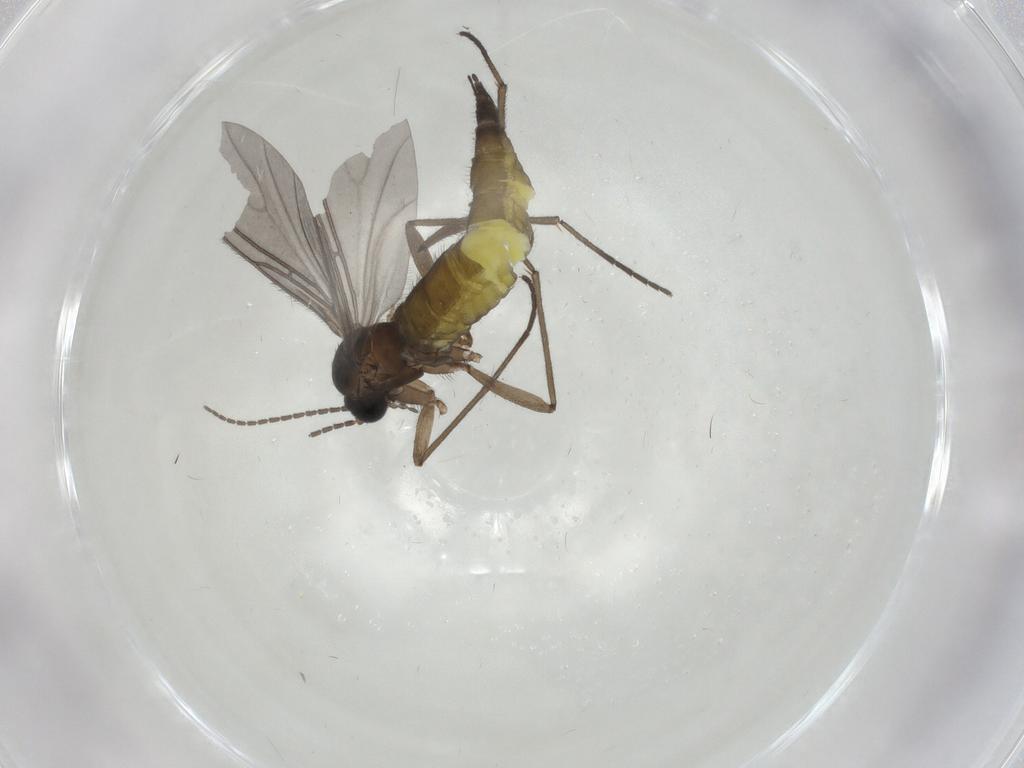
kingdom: Animalia
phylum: Arthropoda
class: Insecta
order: Diptera
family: Sciaridae
